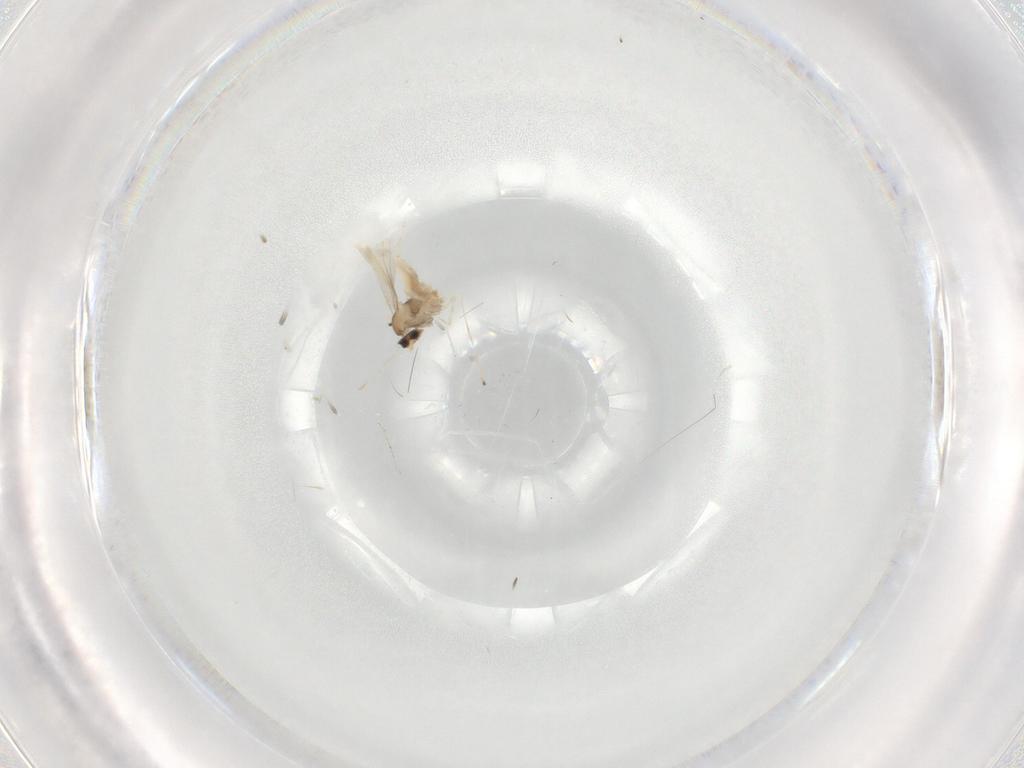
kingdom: Animalia
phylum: Arthropoda
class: Insecta
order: Diptera
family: Cecidomyiidae
